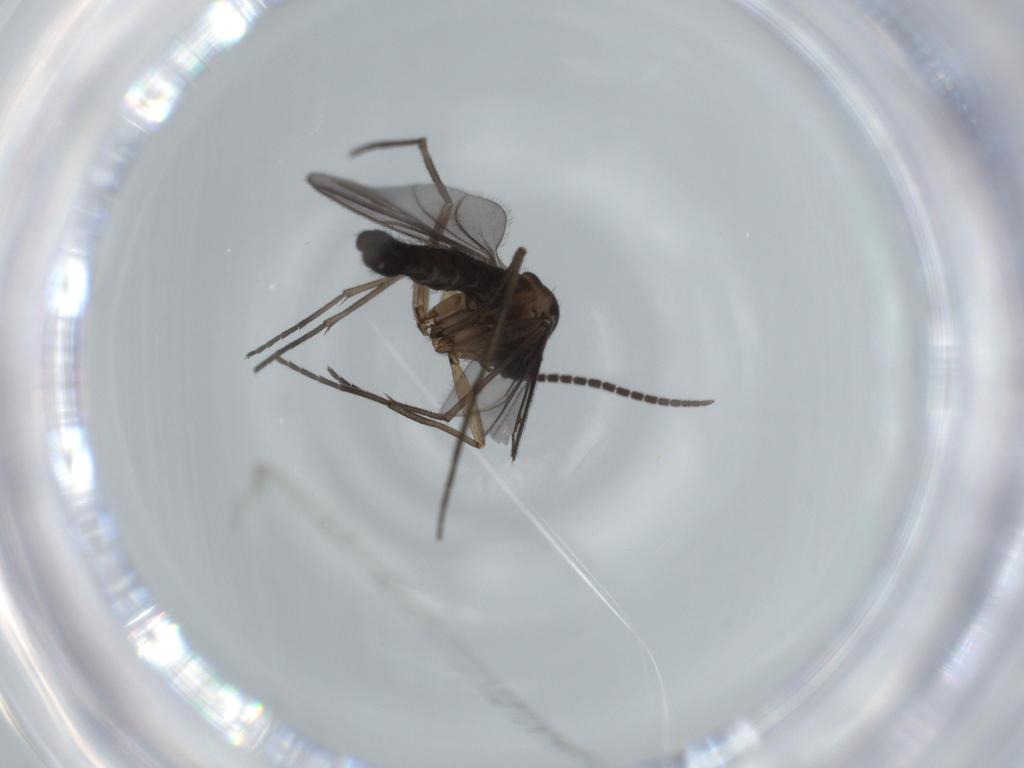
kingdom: Animalia
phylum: Arthropoda
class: Insecta
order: Diptera
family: Sciaridae
